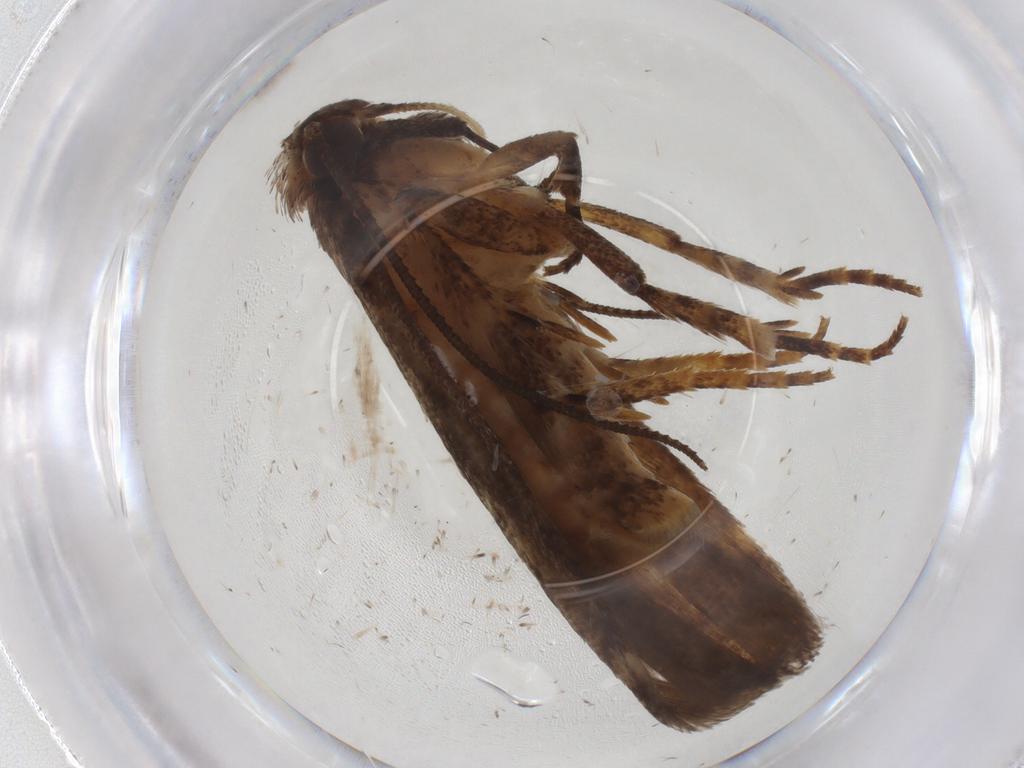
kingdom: Animalia
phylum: Arthropoda
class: Insecta
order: Lepidoptera
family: Gelechiidae
